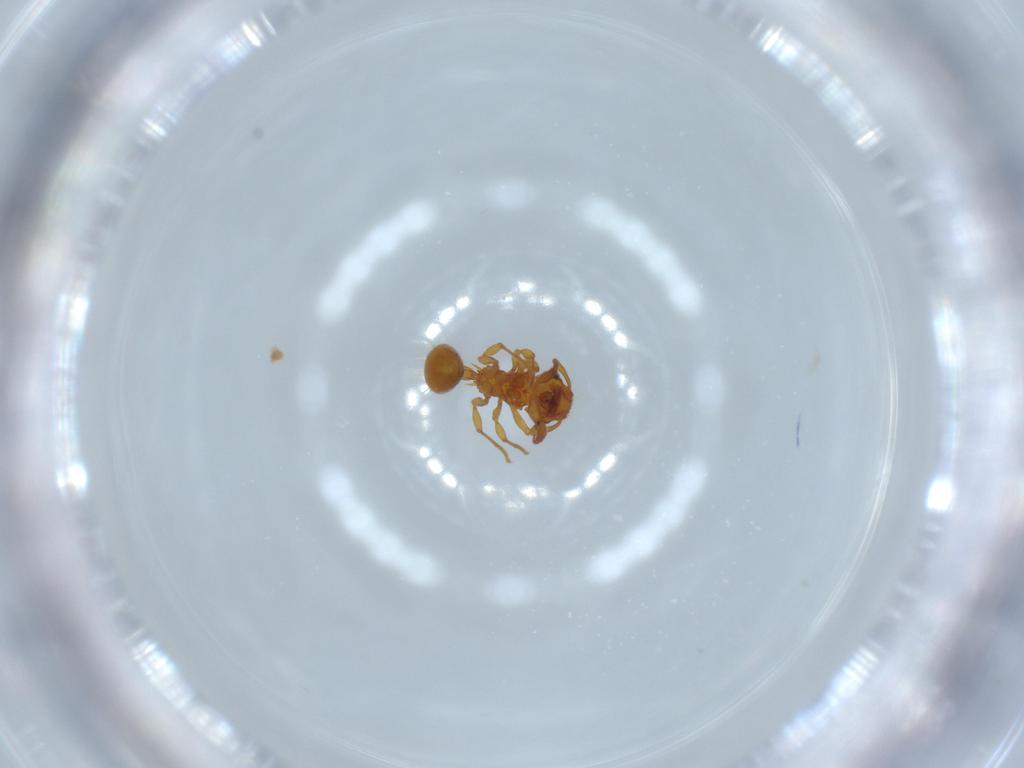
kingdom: Animalia
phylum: Arthropoda
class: Insecta
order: Hymenoptera
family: Formicidae
